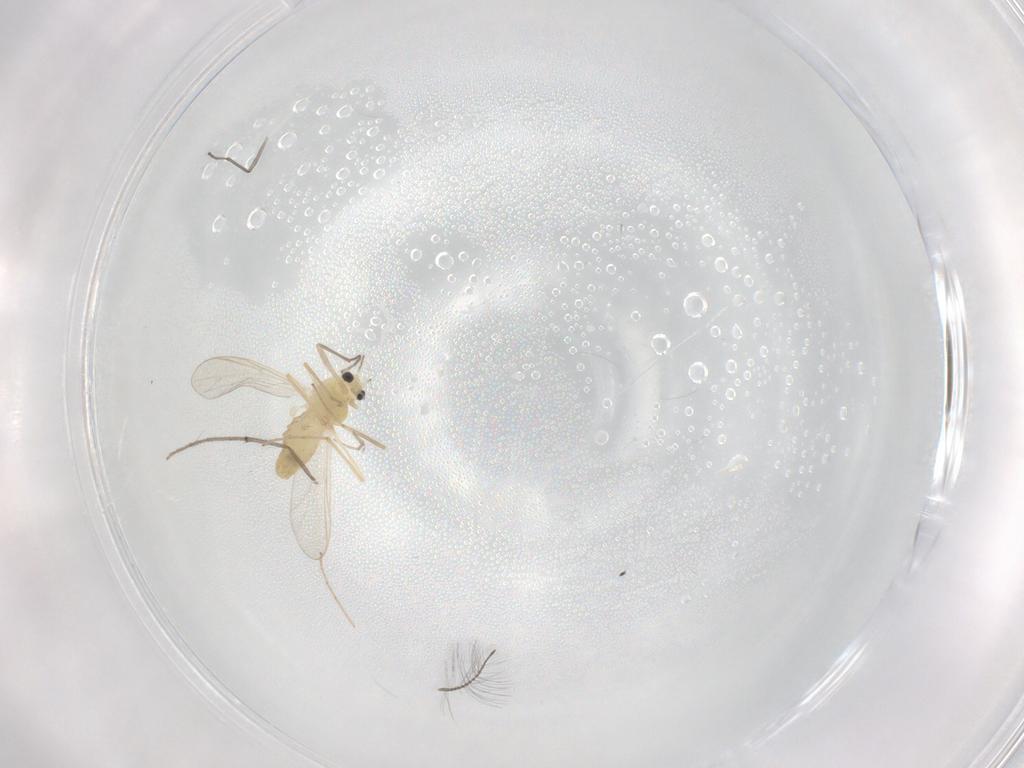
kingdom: Animalia
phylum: Arthropoda
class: Insecta
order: Diptera
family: Chironomidae
